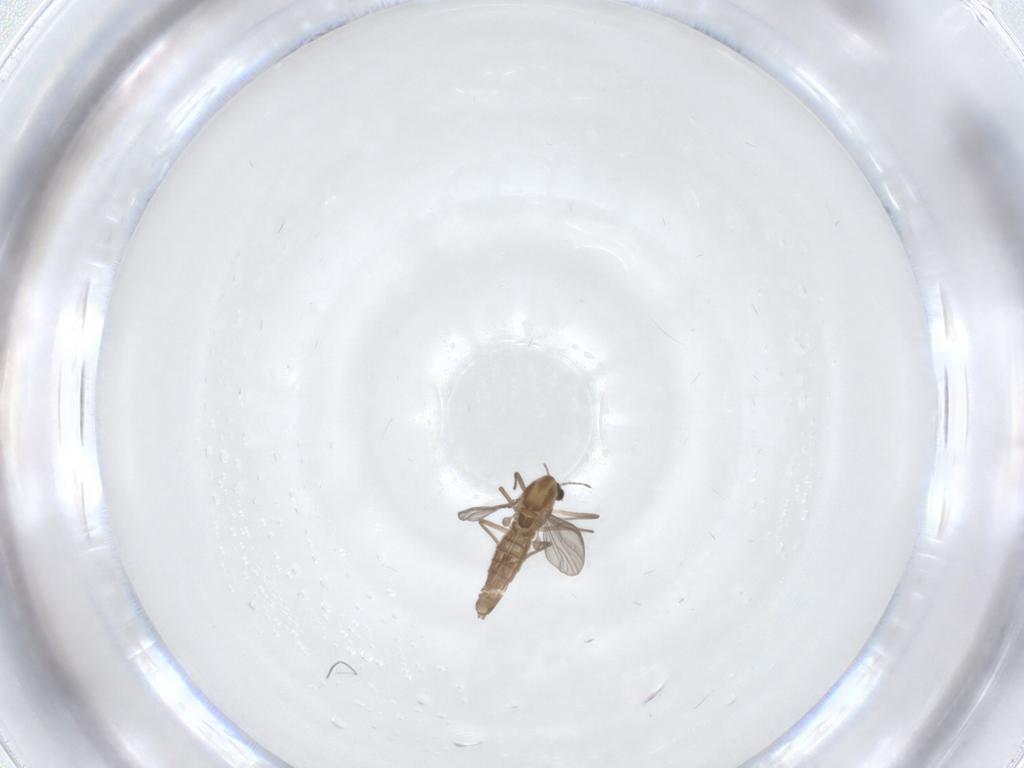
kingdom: Animalia
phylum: Arthropoda
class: Insecta
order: Diptera
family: Limoniidae
